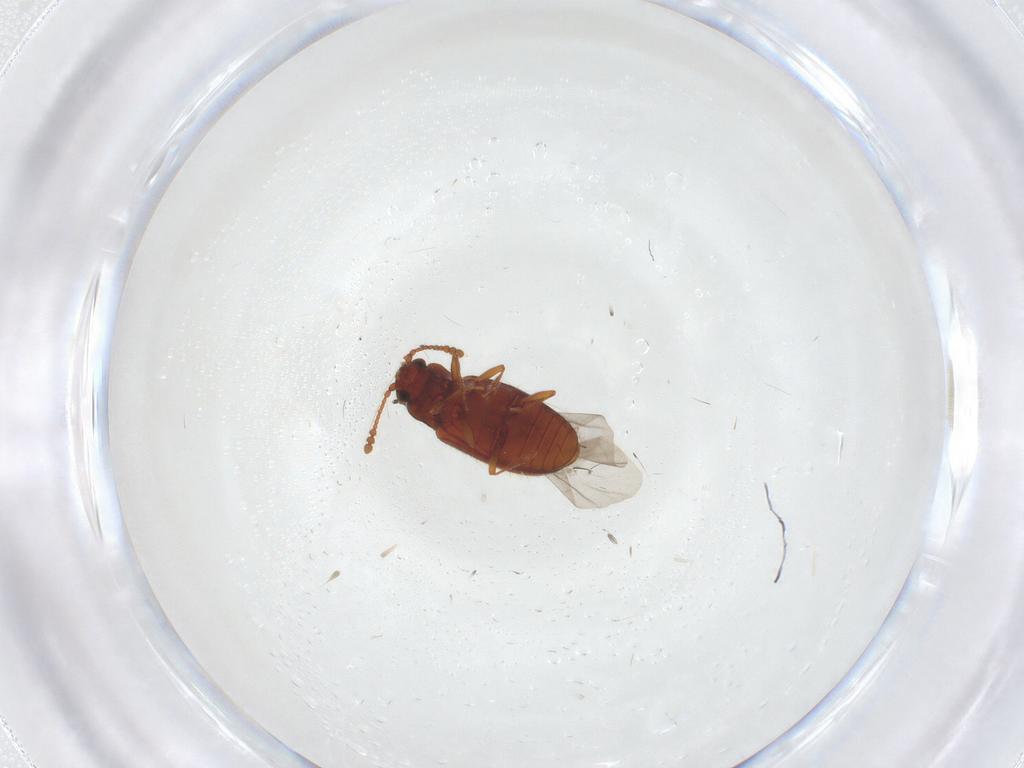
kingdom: Animalia
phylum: Arthropoda
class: Insecta
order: Coleoptera
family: Cryptophagidae
